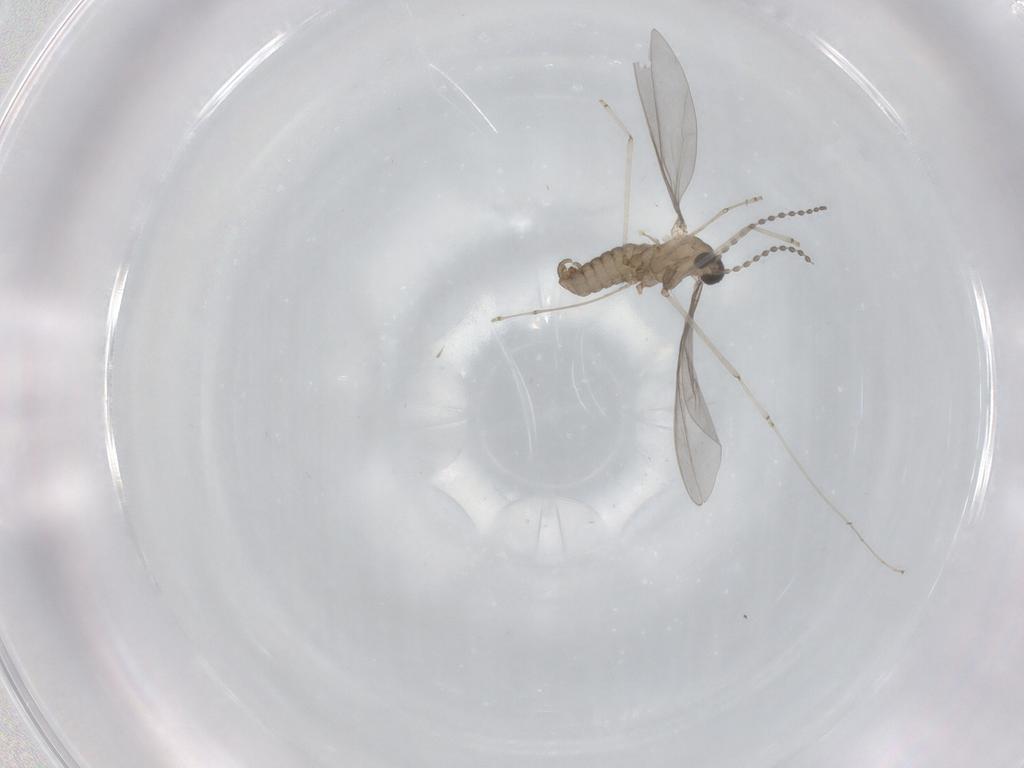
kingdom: Animalia
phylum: Arthropoda
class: Insecta
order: Diptera
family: Cecidomyiidae
